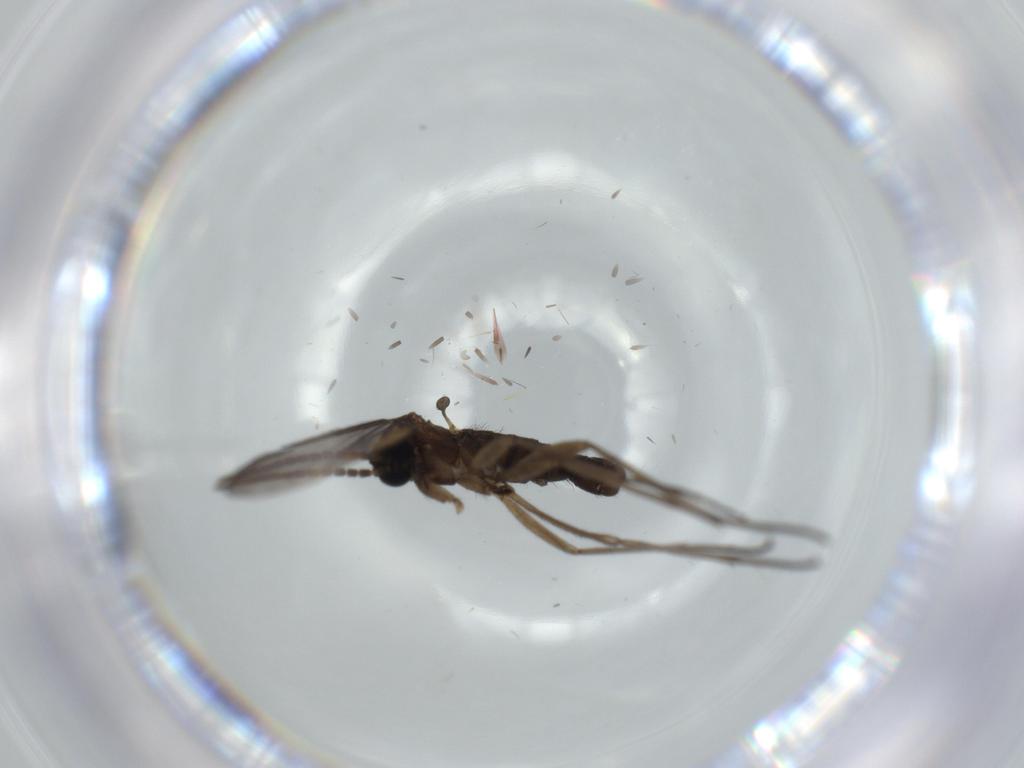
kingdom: Animalia
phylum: Arthropoda
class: Insecta
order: Diptera
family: Sciaridae
